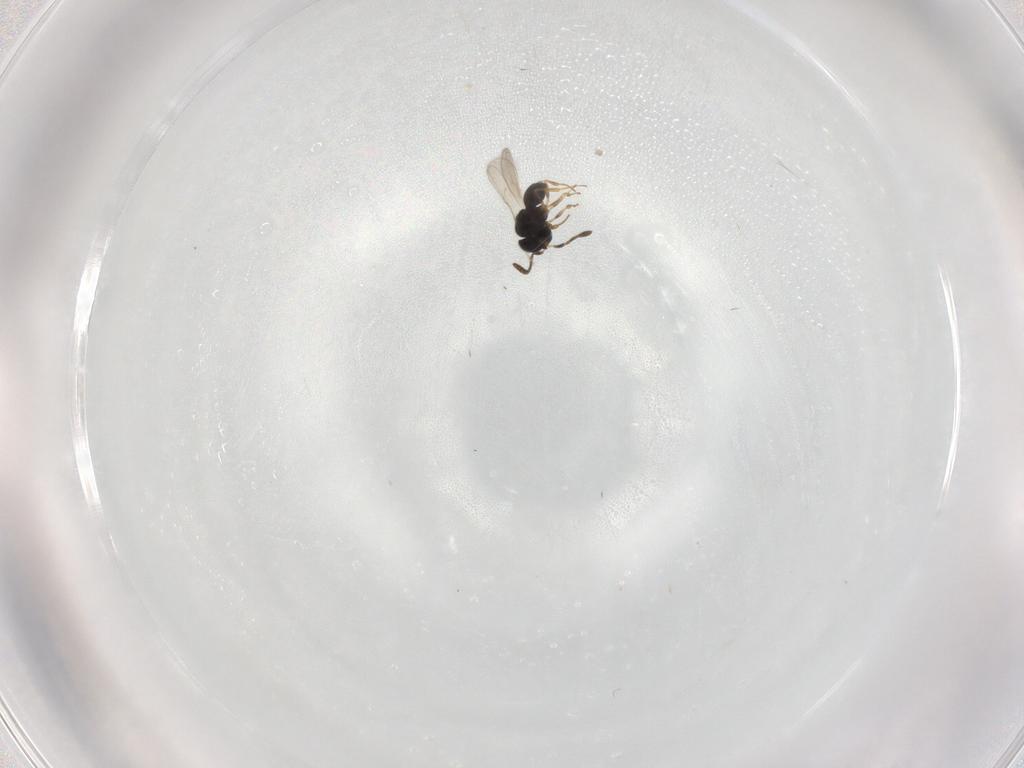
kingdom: Animalia
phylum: Arthropoda
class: Insecta
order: Hymenoptera
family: Scelionidae
